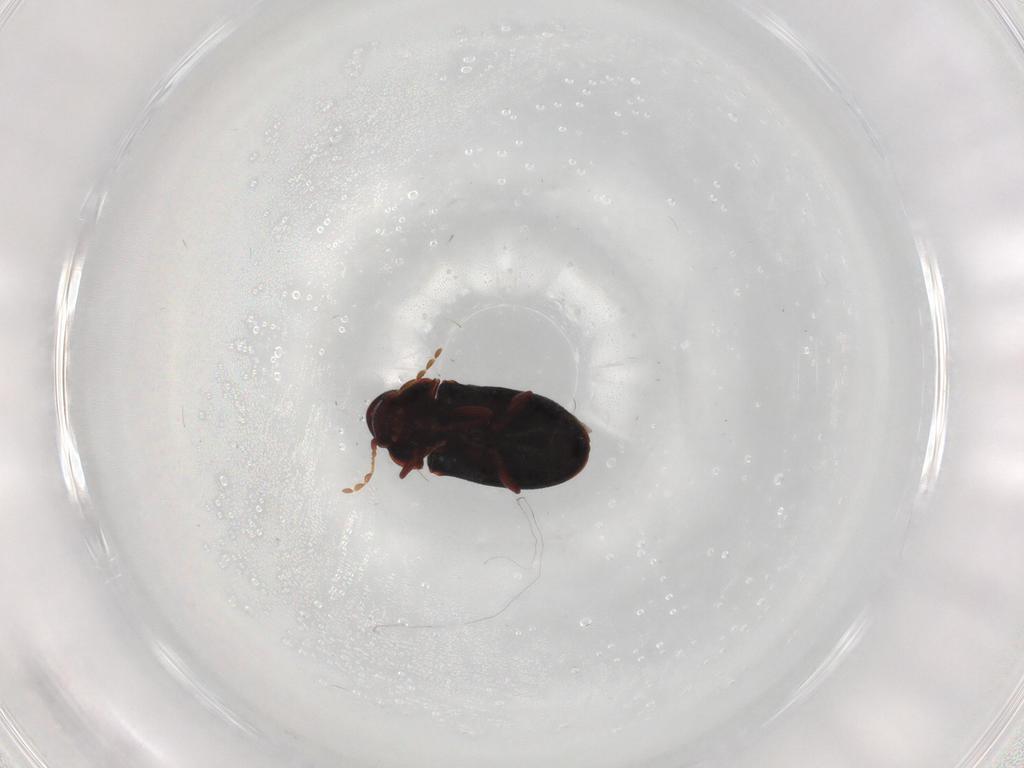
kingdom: Animalia
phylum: Arthropoda
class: Insecta
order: Coleoptera
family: Ptinidae
